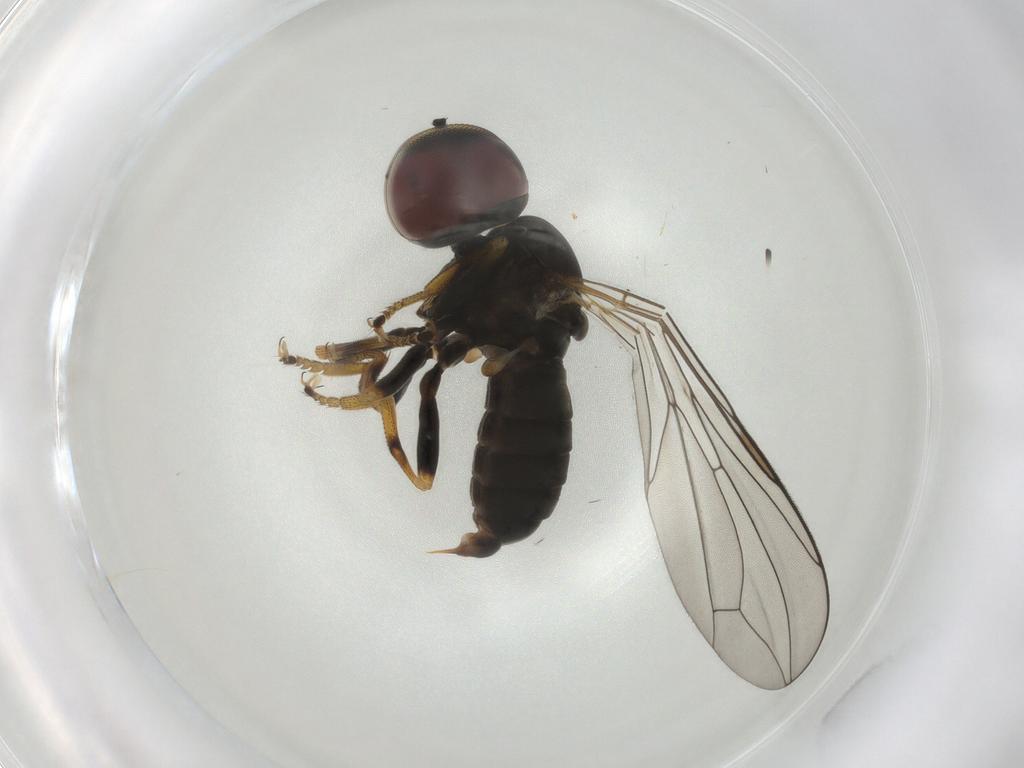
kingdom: Animalia
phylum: Arthropoda
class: Insecta
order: Diptera
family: Pipunculidae
